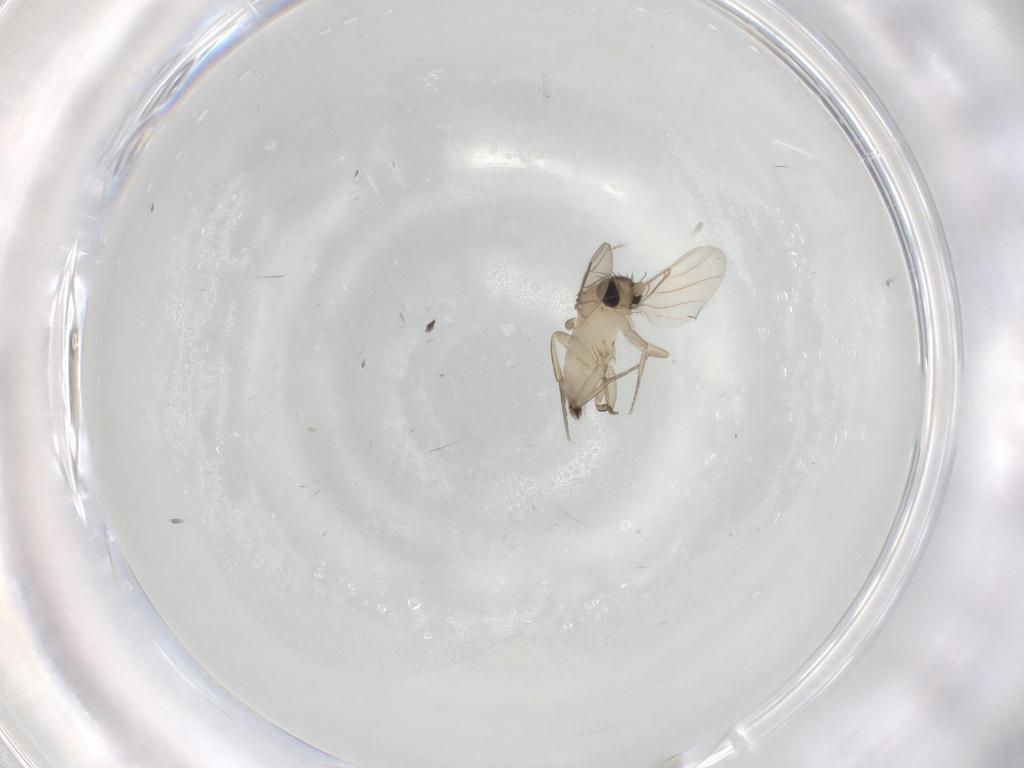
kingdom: Animalia
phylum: Arthropoda
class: Insecta
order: Diptera
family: Phoridae
